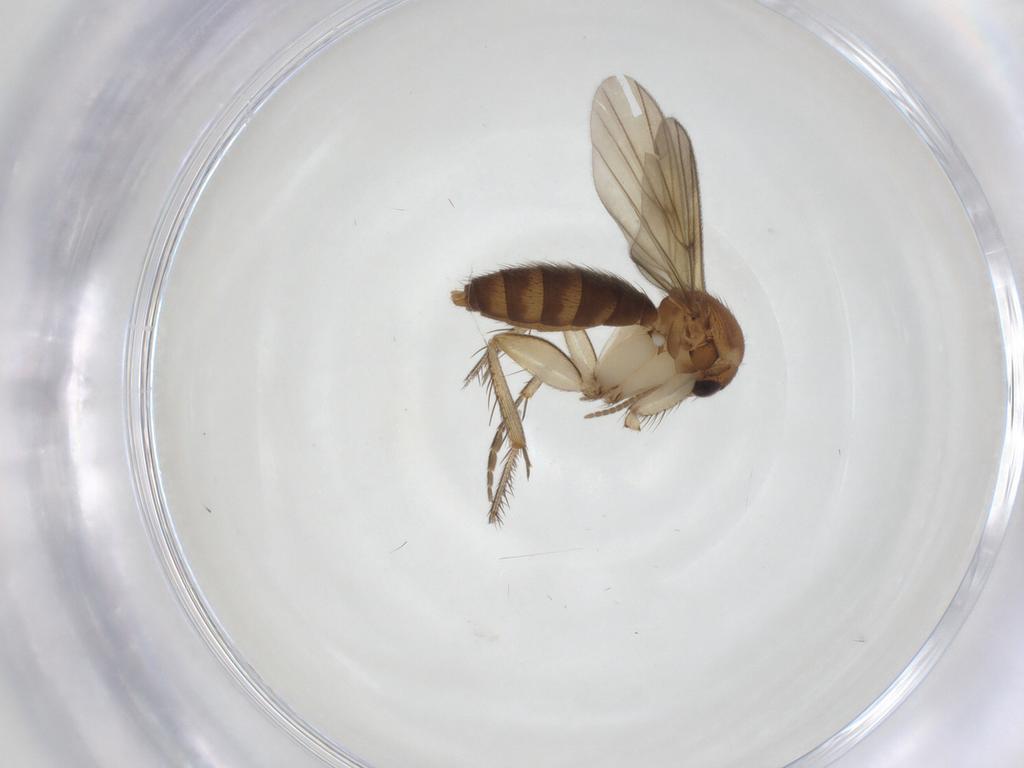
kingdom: Animalia
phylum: Arthropoda
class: Insecta
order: Diptera
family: Mycetophilidae
